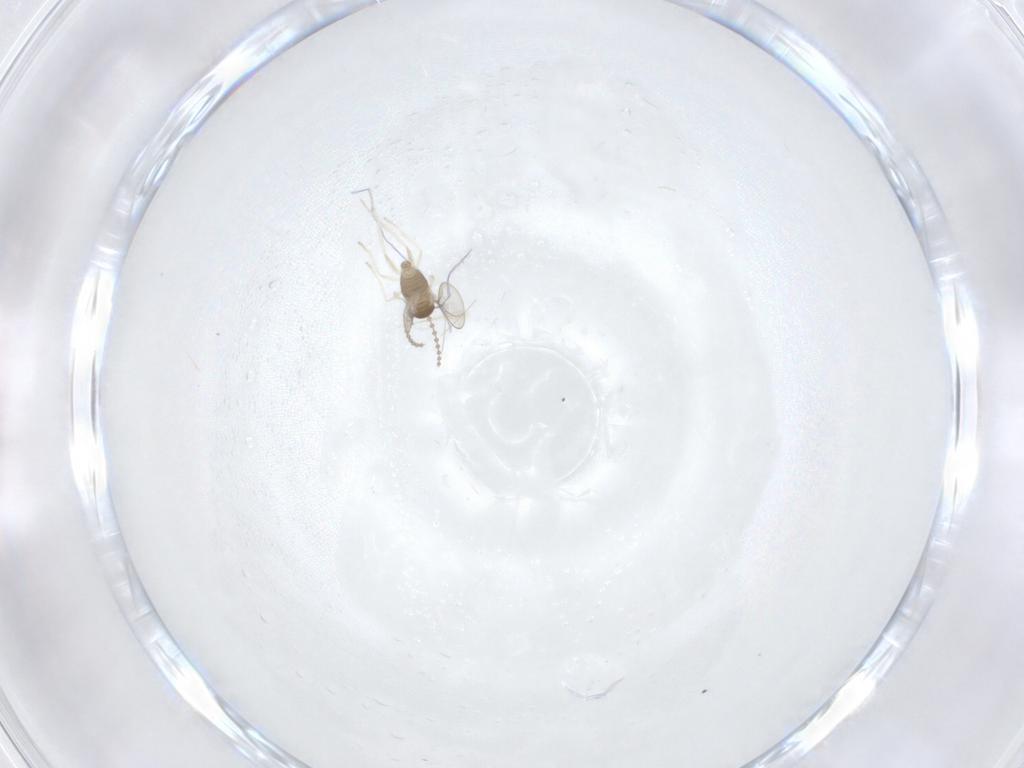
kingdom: Animalia
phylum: Arthropoda
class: Insecta
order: Diptera
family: Cecidomyiidae
